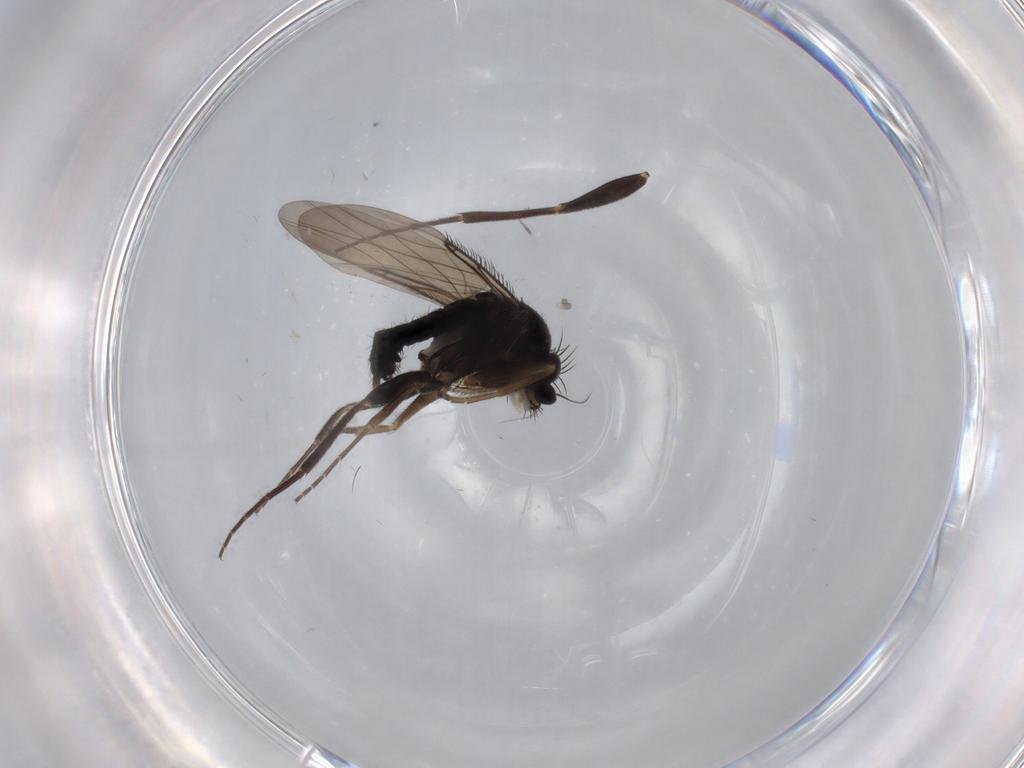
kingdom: Animalia
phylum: Arthropoda
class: Insecta
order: Diptera
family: Phoridae
